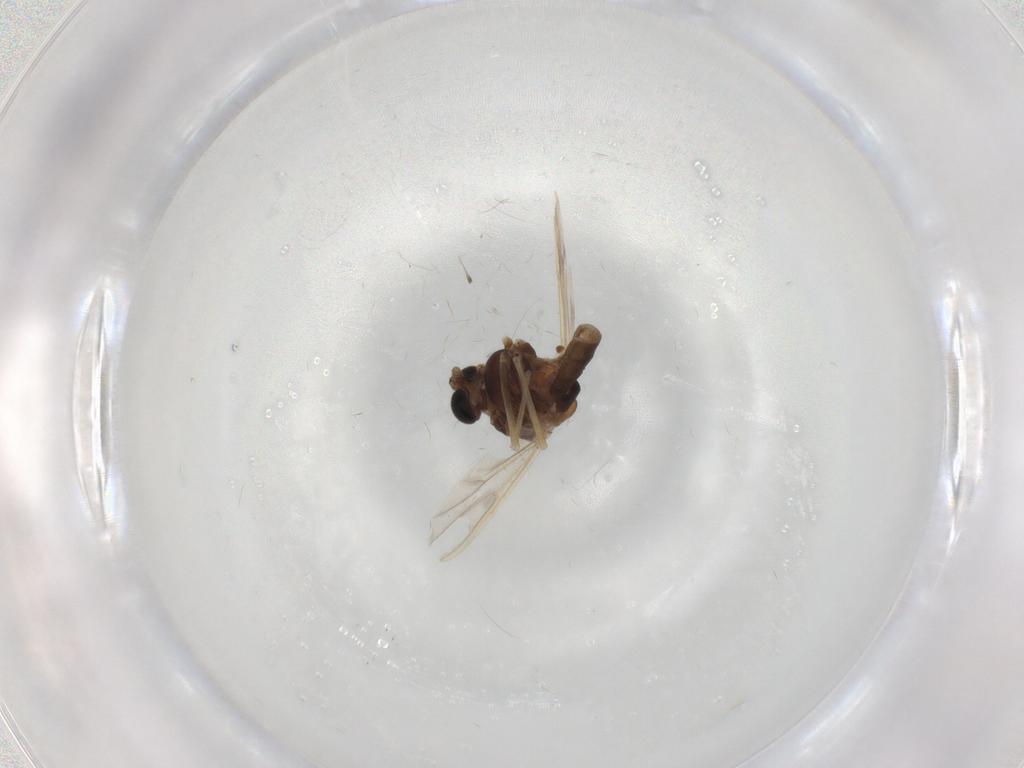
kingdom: Animalia
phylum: Arthropoda
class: Insecta
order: Diptera
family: Chironomidae
